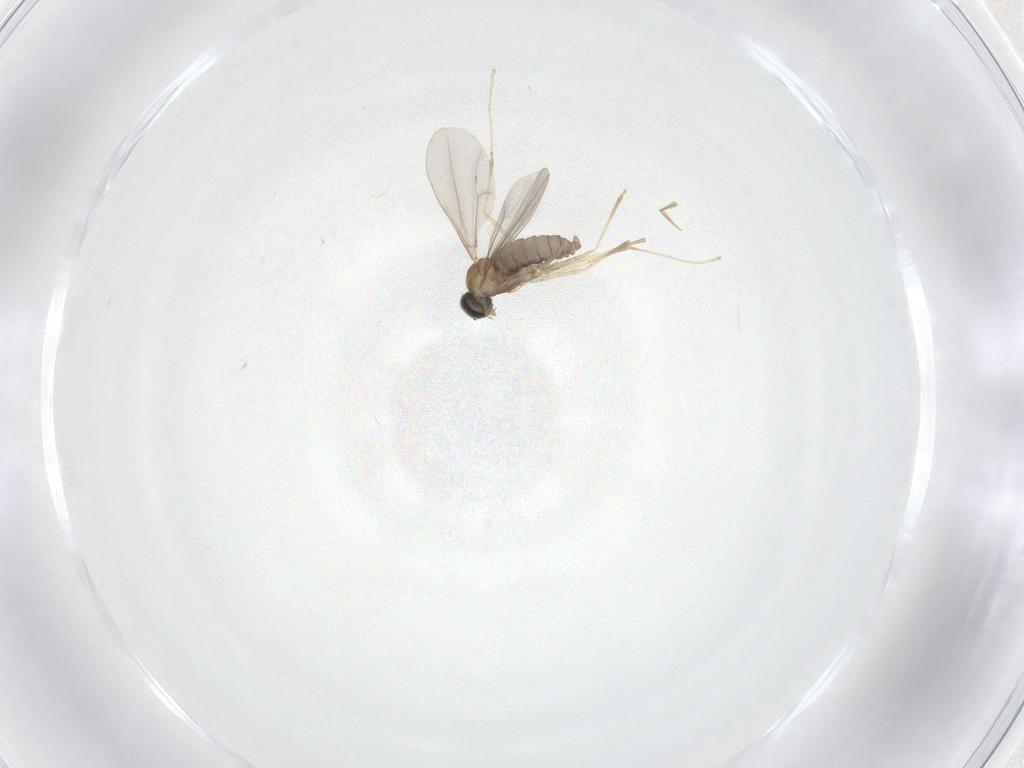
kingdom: Animalia
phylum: Arthropoda
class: Insecta
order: Diptera
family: Cecidomyiidae
